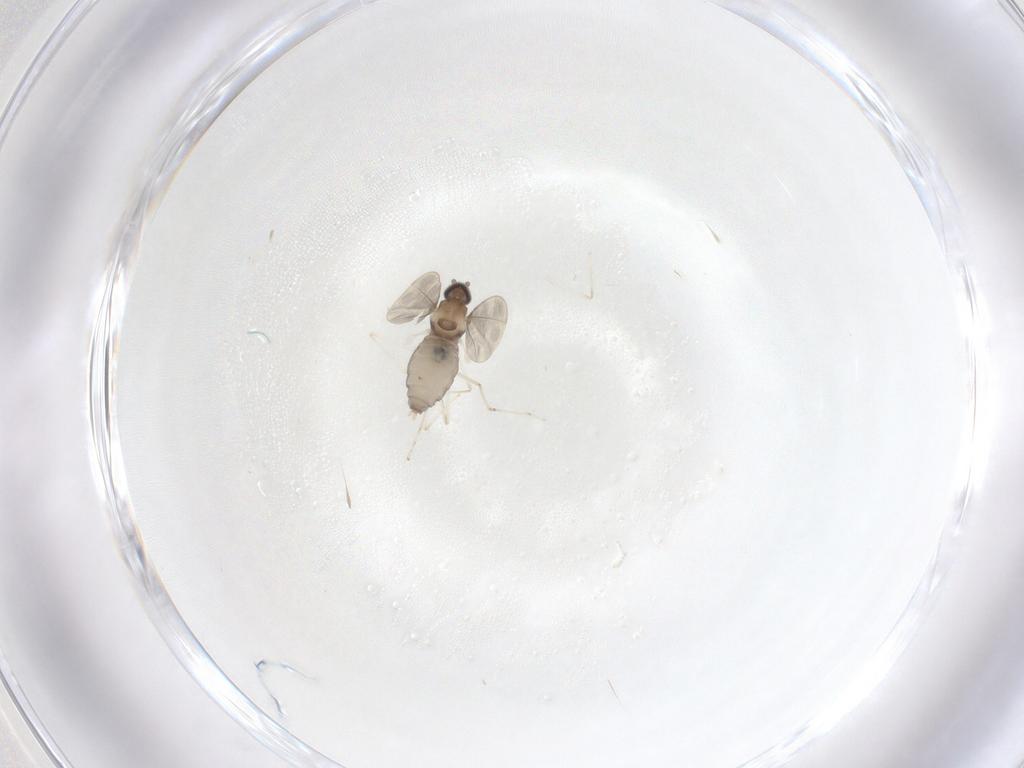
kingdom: Animalia
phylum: Arthropoda
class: Insecta
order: Diptera
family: Cecidomyiidae
